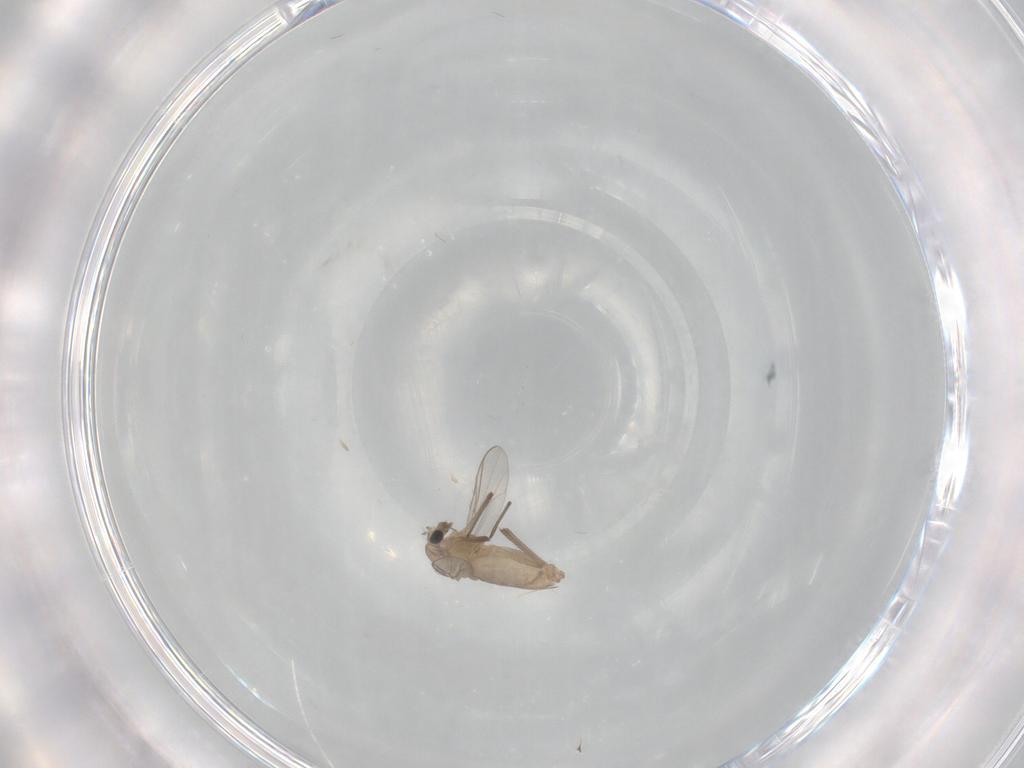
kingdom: Animalia
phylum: Arthropoda
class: Insecta
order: Diptera
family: Chironomidae
